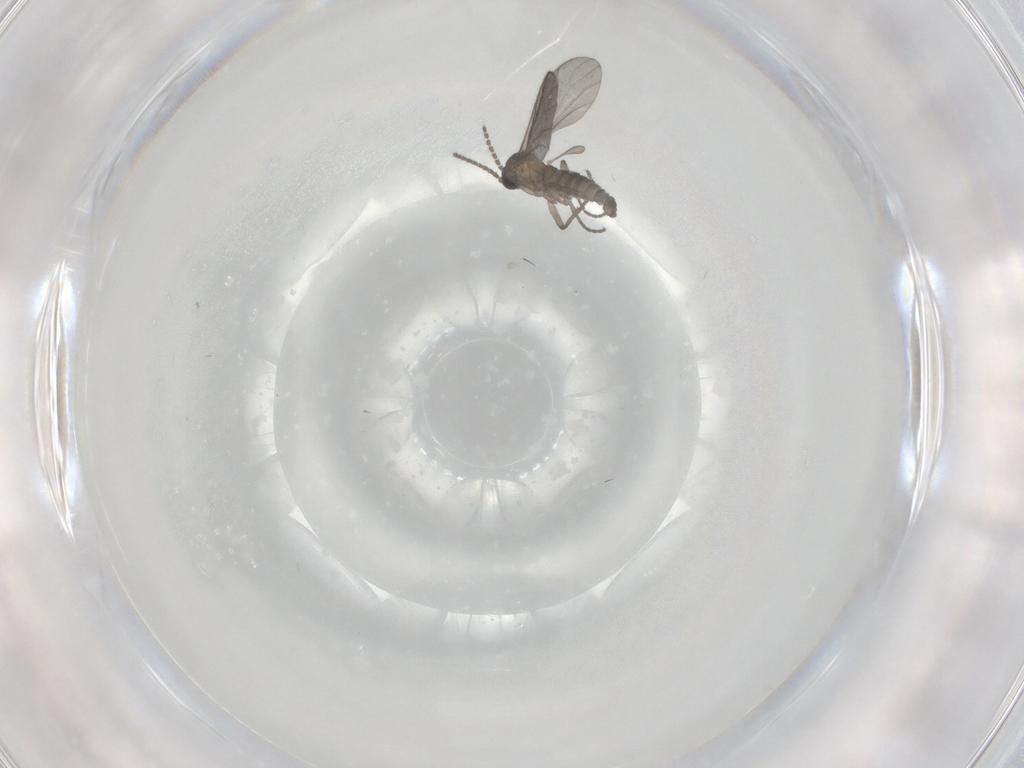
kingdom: Animalia
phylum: Arthropoda
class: Insecta
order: Diptera
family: Sciaridae
